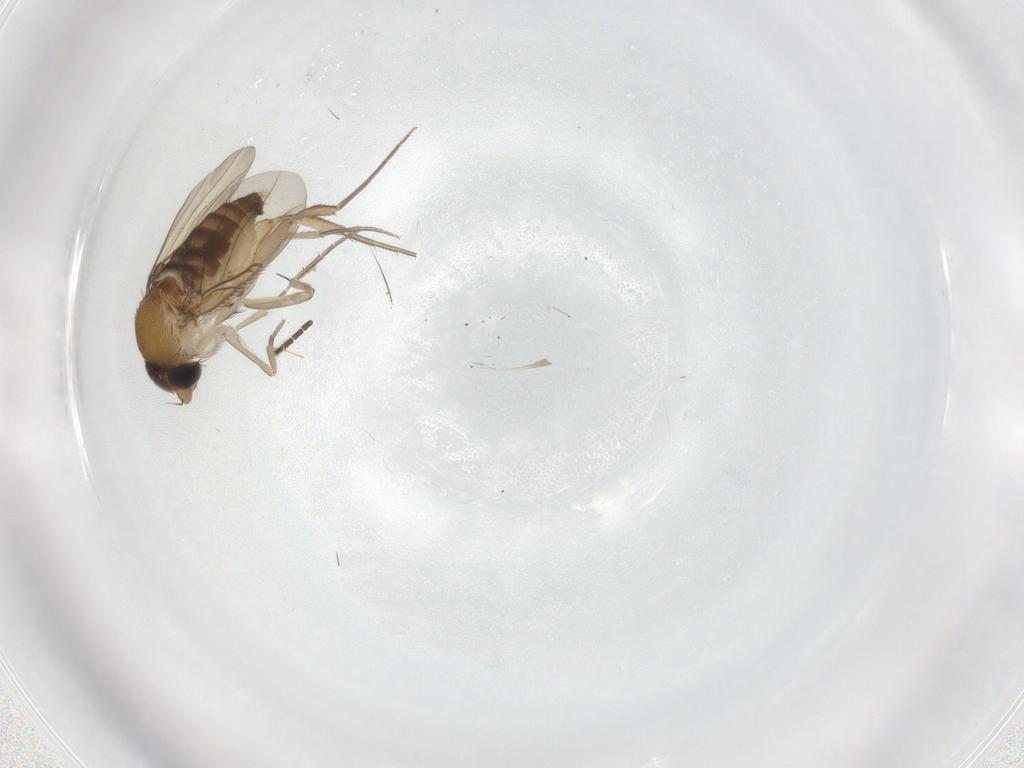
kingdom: Animalia
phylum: Arthropoda
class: Insecta
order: Diptera
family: Phoridae
